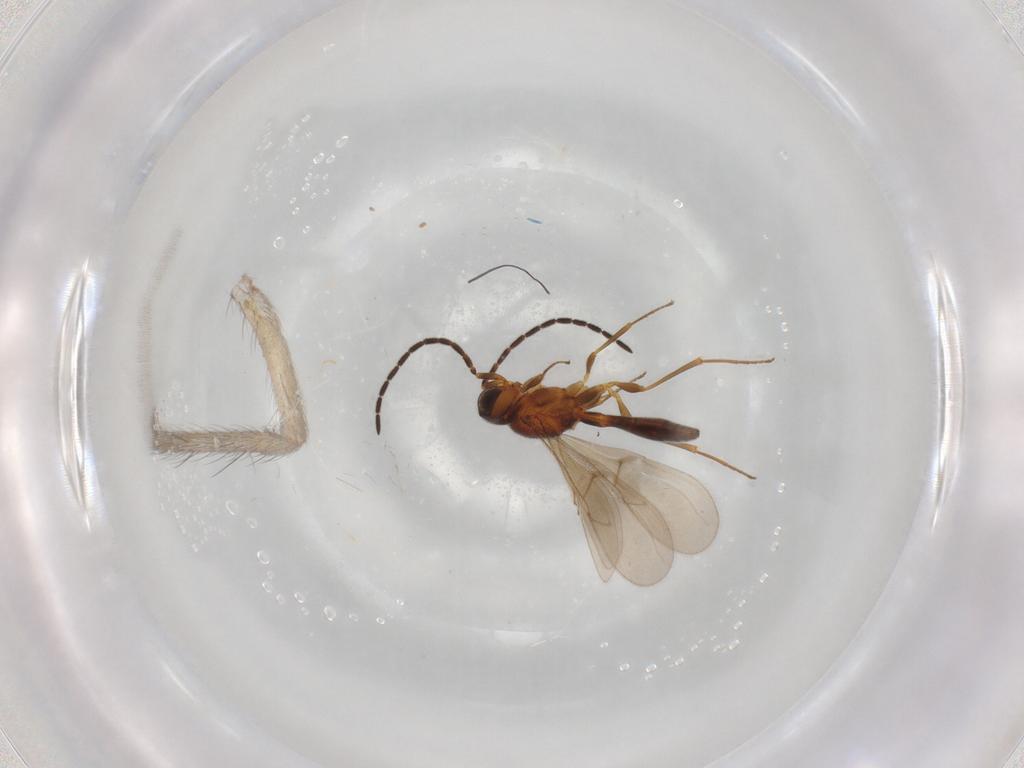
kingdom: Animalia
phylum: Arthropoda
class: Insecta
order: Hymenoptera
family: Scelionidae
